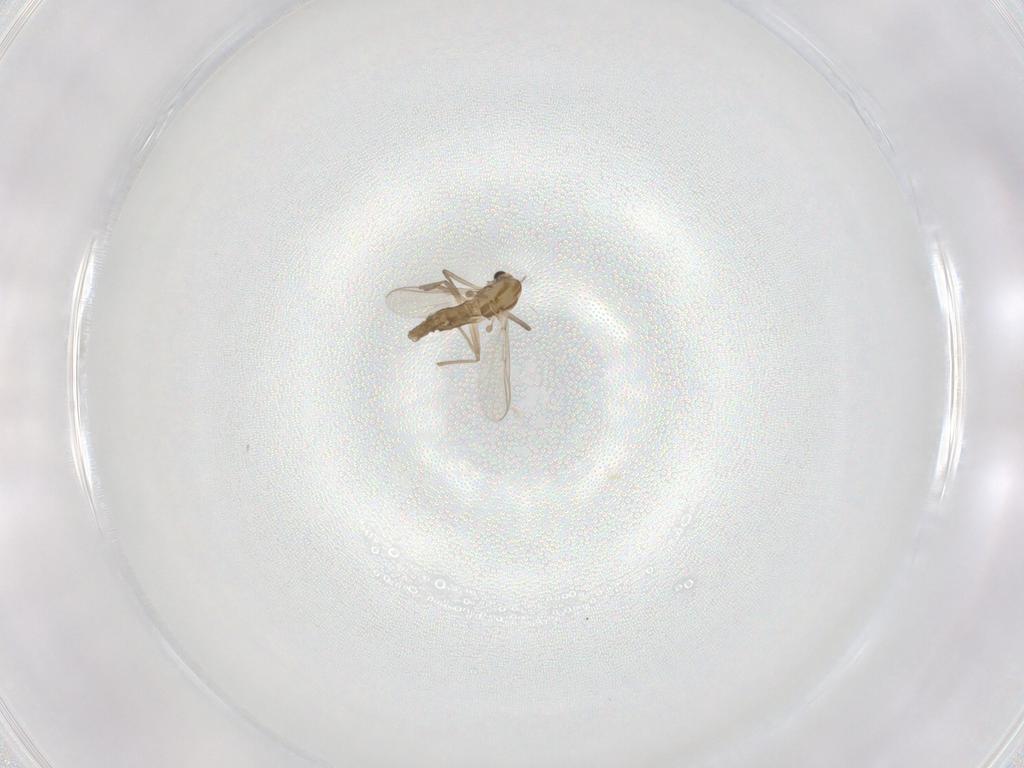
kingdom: Animalia
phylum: Arthropoda
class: Insecta
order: Diptera
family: Chironomidae
